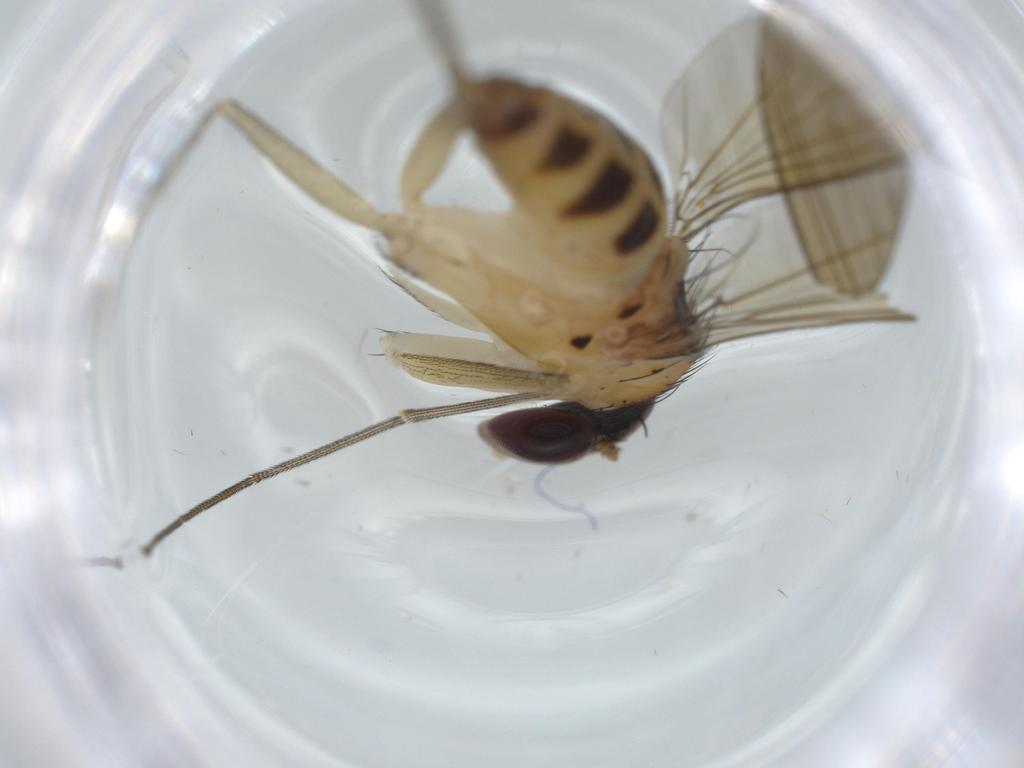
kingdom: Animalia
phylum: Arthropoda
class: Insecta
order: Diptera
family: Dolichopodidae
